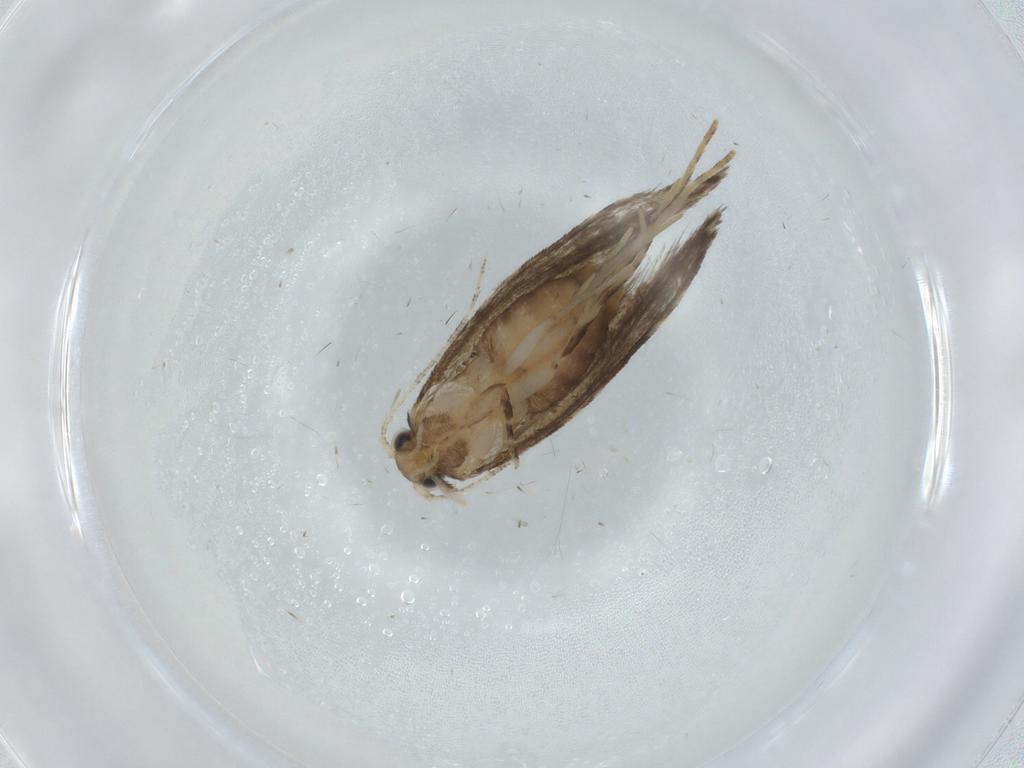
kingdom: Animalia
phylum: Arthropoda
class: Insecta
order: Lepidoptera
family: Tineidae
